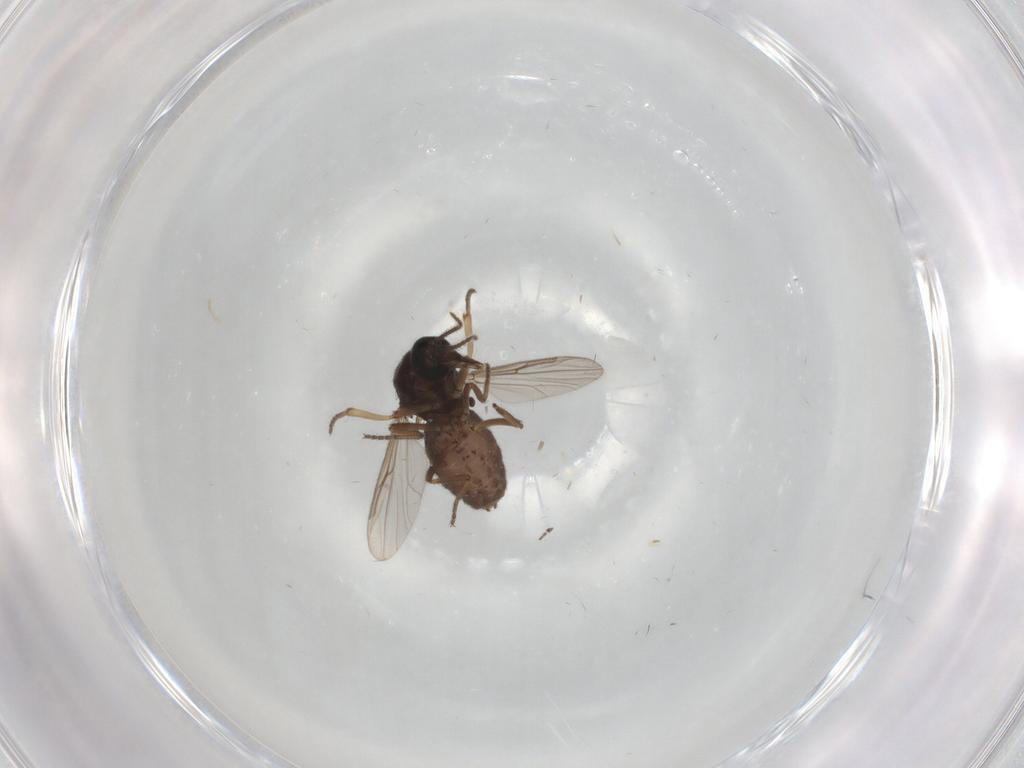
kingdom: Animalia
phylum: Arthropoda
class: Insecta
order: Diptera
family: Ceratopogonidae
